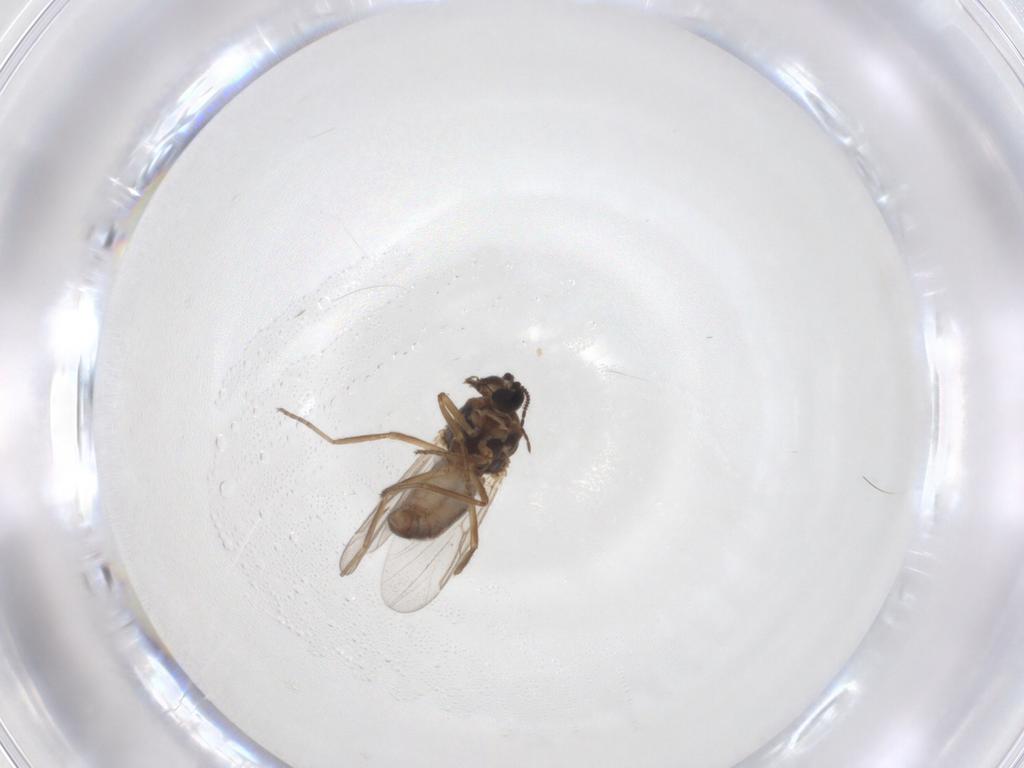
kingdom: Animalia
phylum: Arthropoda
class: Insecta
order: Diptera
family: Ceratopogonidae
